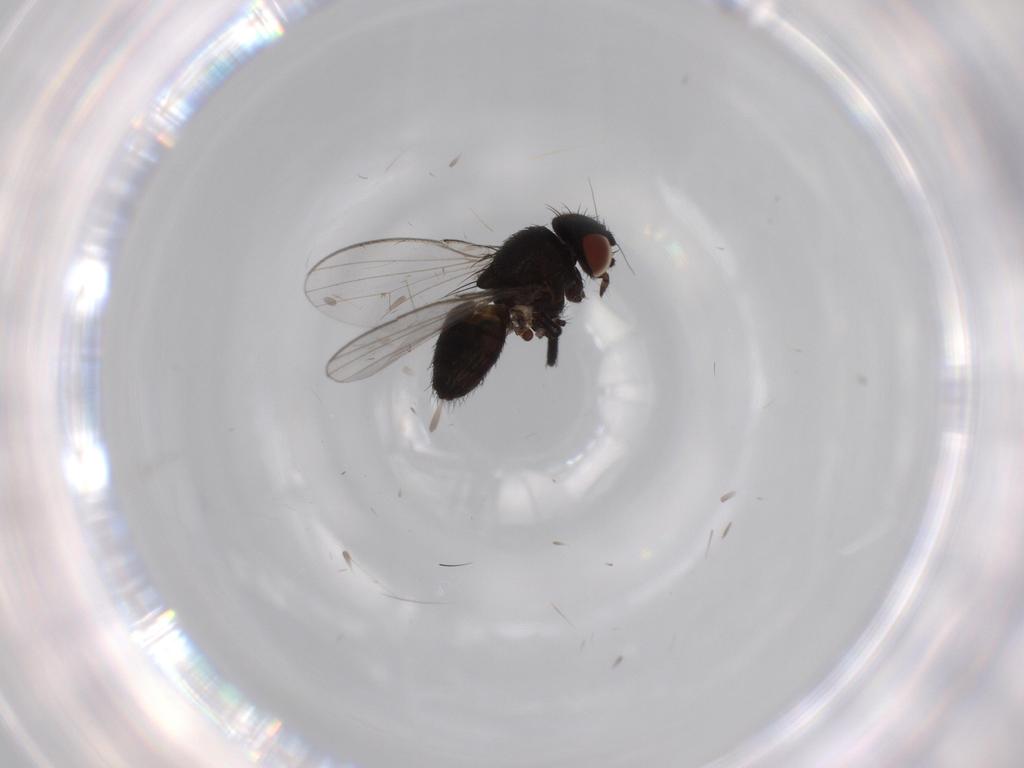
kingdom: Animalia
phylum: Arthropoda
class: Insecta
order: Diptera
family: Milichiidae
